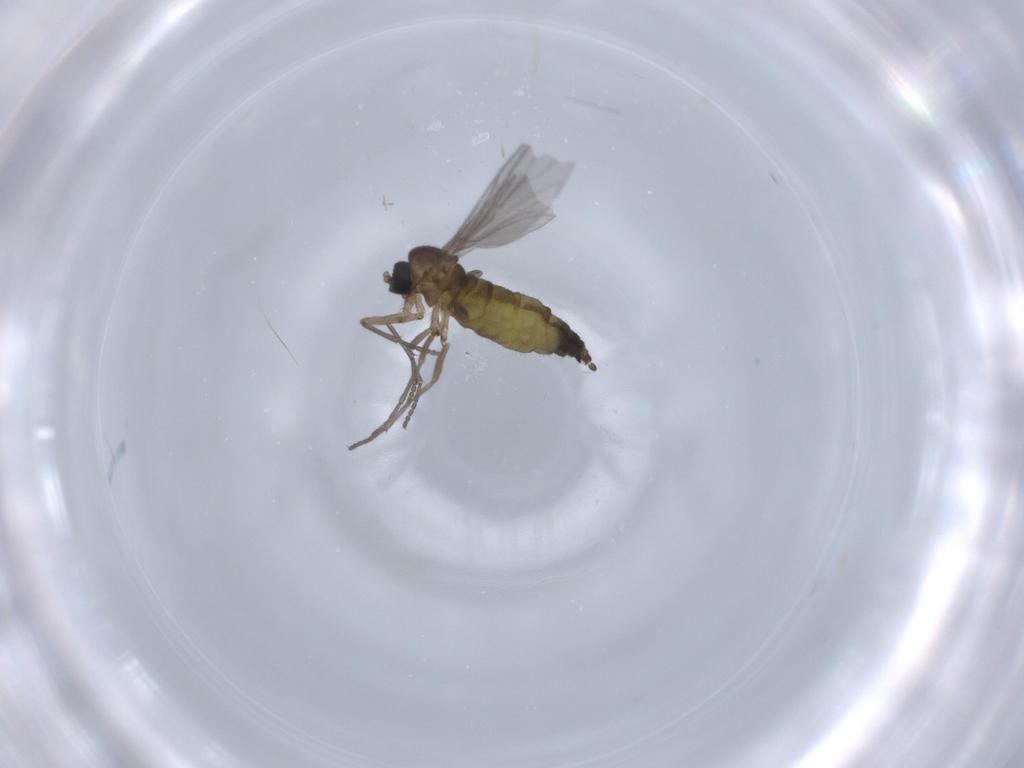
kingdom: Animalia
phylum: Arthropoda
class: Insecta
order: Diptera
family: Sciaridae
